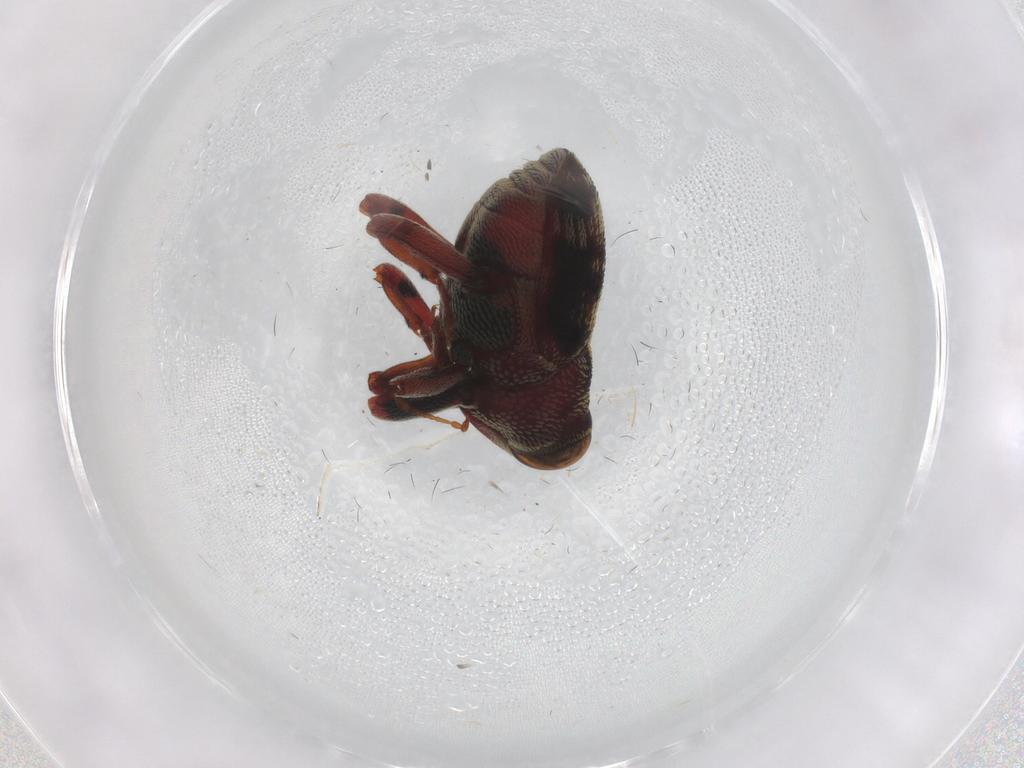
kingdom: Animalia
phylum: Arthropoda
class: Insecta
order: Coleoptera
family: Curculionidae
